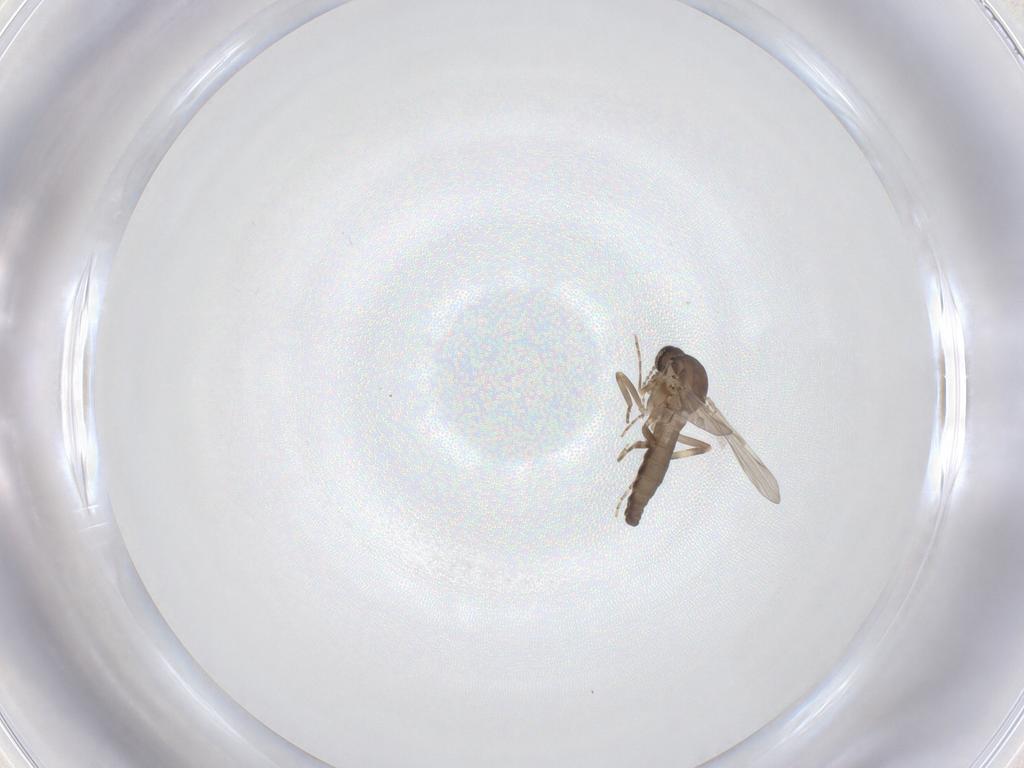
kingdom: Animalia
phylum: Arthropoda
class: Insecta
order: Diptera
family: Ceratopogonidae
